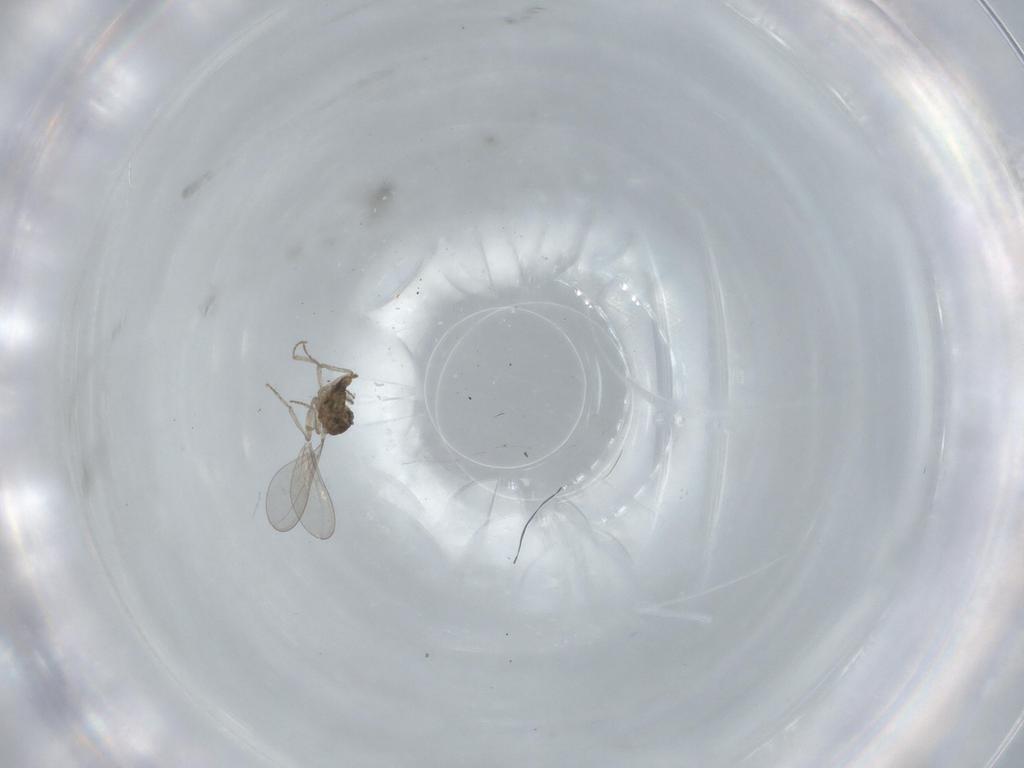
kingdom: Animalia
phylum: Arthropoda
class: Insecta
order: Diptera
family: Cecidomyiidae
